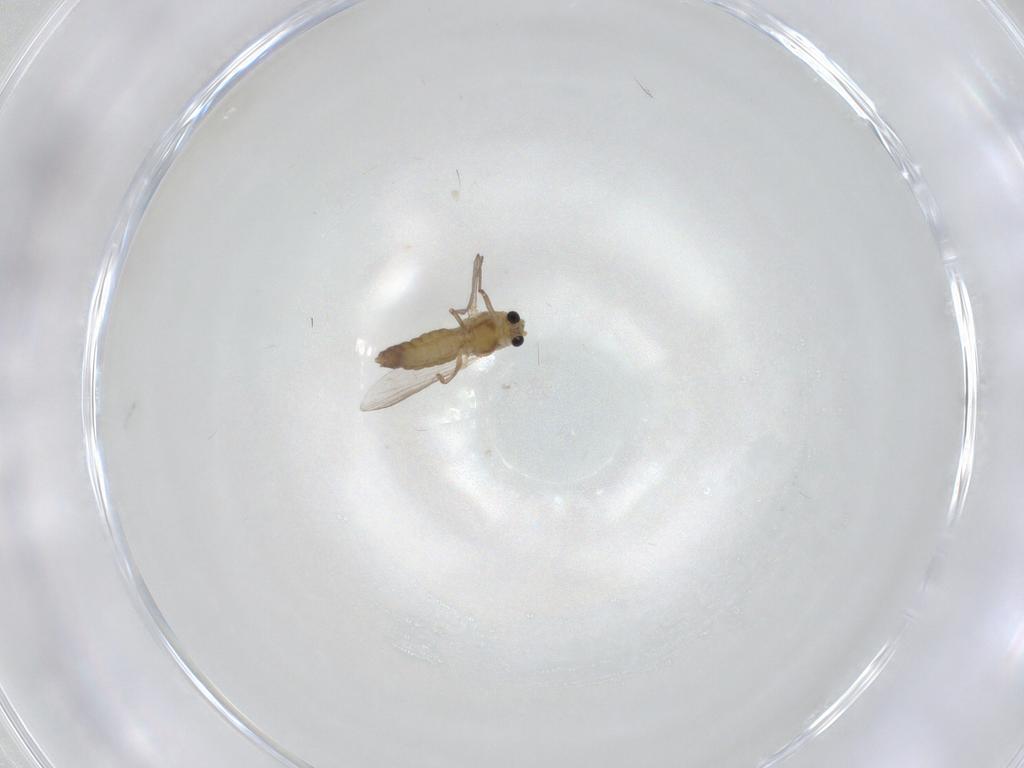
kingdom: Animalia
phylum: Arthropoda
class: Insecta
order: Diptera
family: Chironomidae
